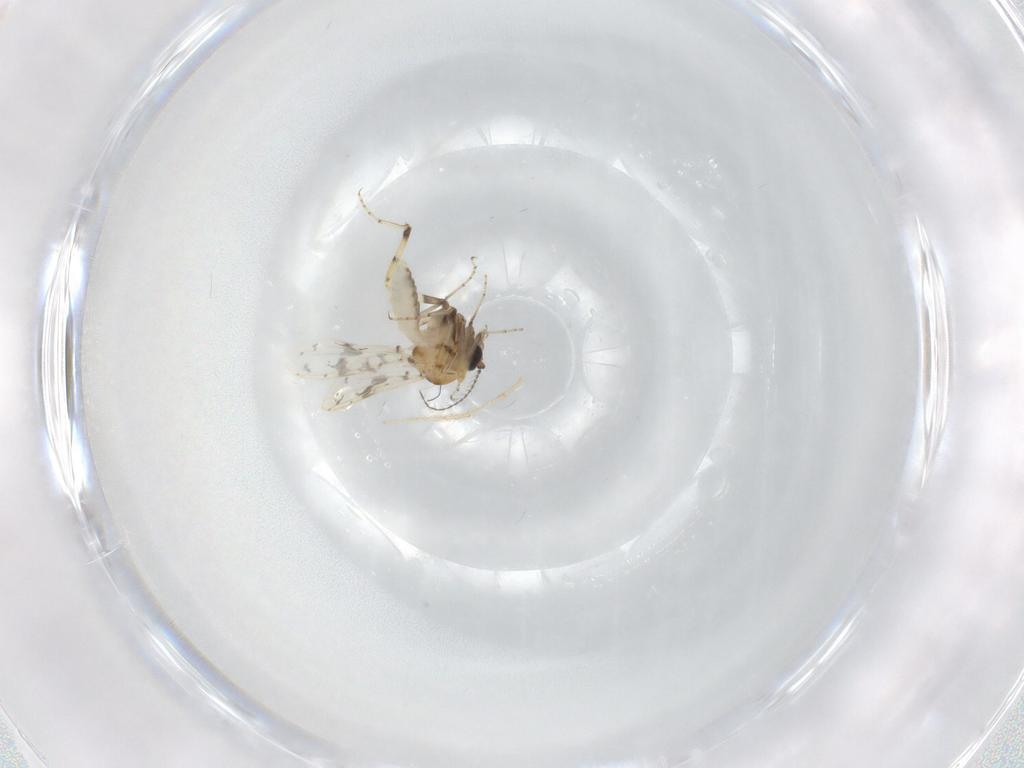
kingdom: Animalia
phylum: Arthropoda
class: Insecta
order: Diptera
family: Ceratopogonidae
